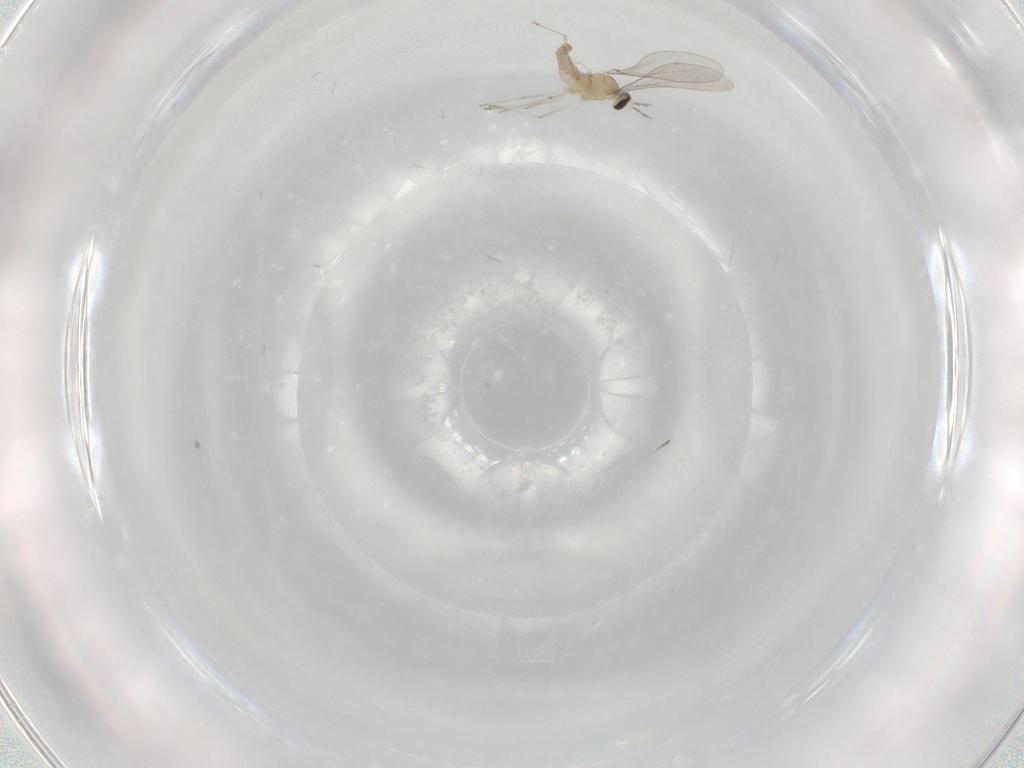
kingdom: Animalia
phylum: Arthropoda
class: Insecta
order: Diptera
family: Cecidomyiidae
